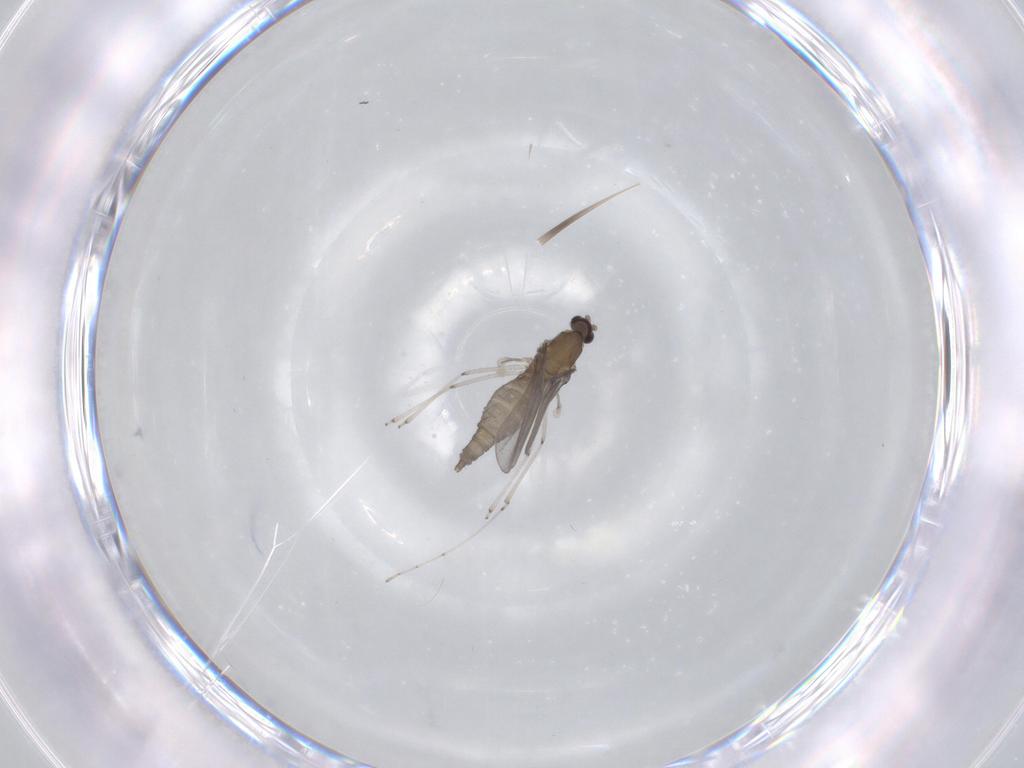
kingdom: Animalia
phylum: Arthropoda
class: Insecta
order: Diptera
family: Cecidomyiidae
